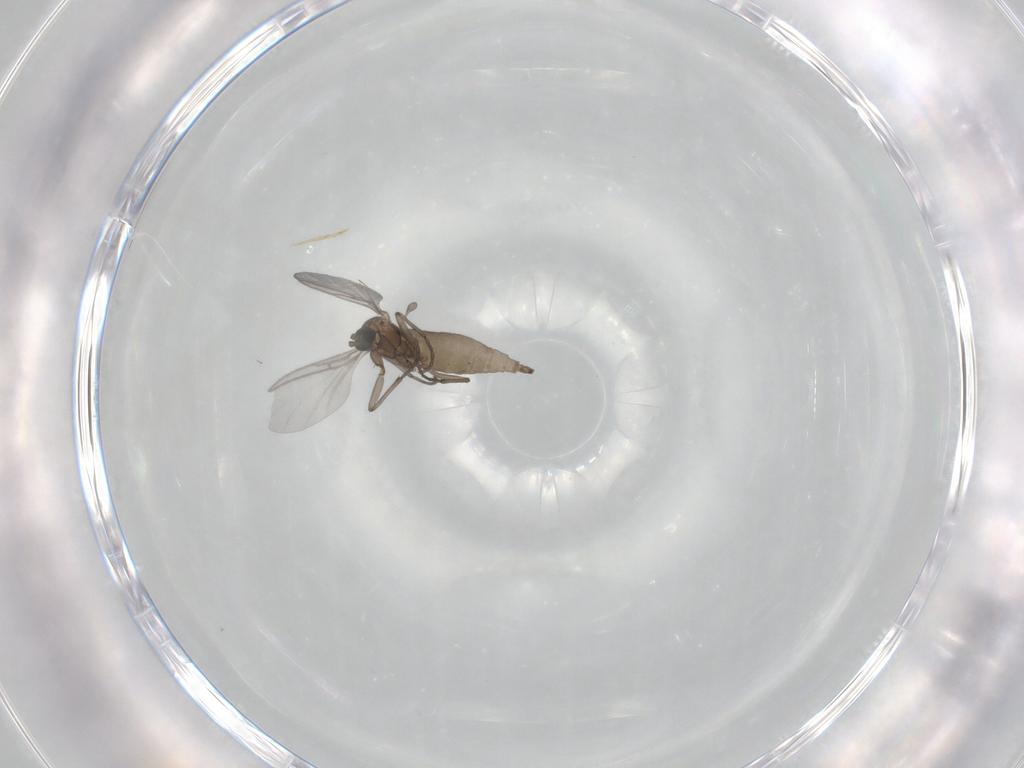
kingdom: Animalia
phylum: Arthropoda
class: Insecta
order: Diptera
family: Sciaridae
